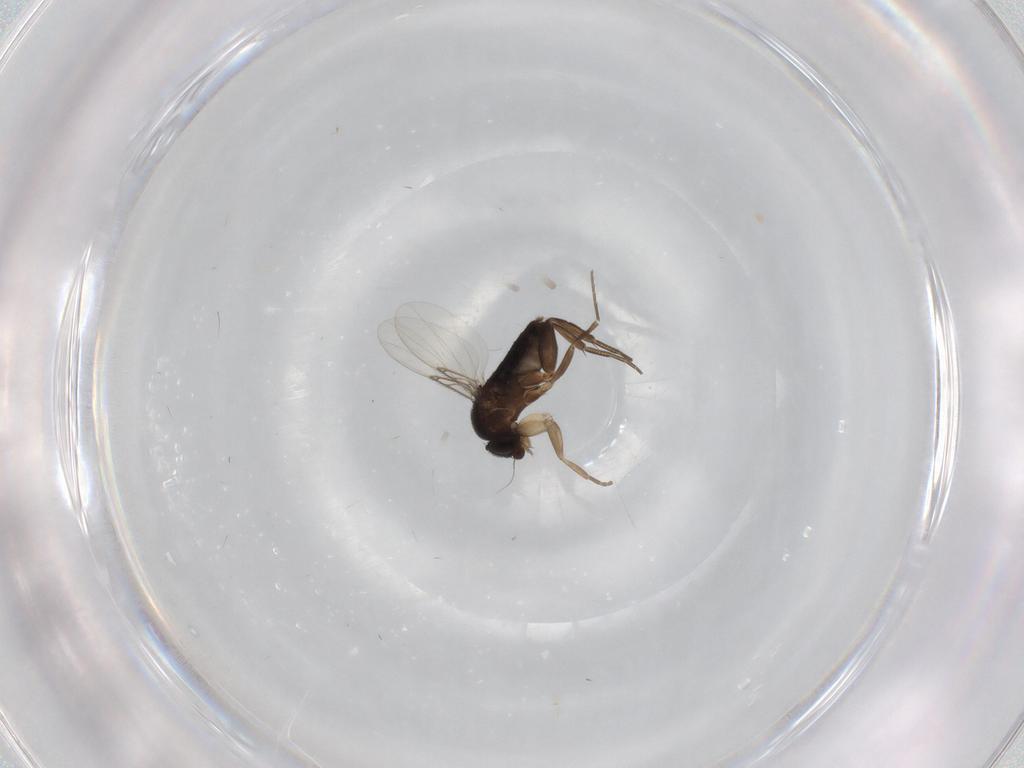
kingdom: Animalia
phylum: Arthropoda
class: Insecta
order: Diptera
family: Phoridae
